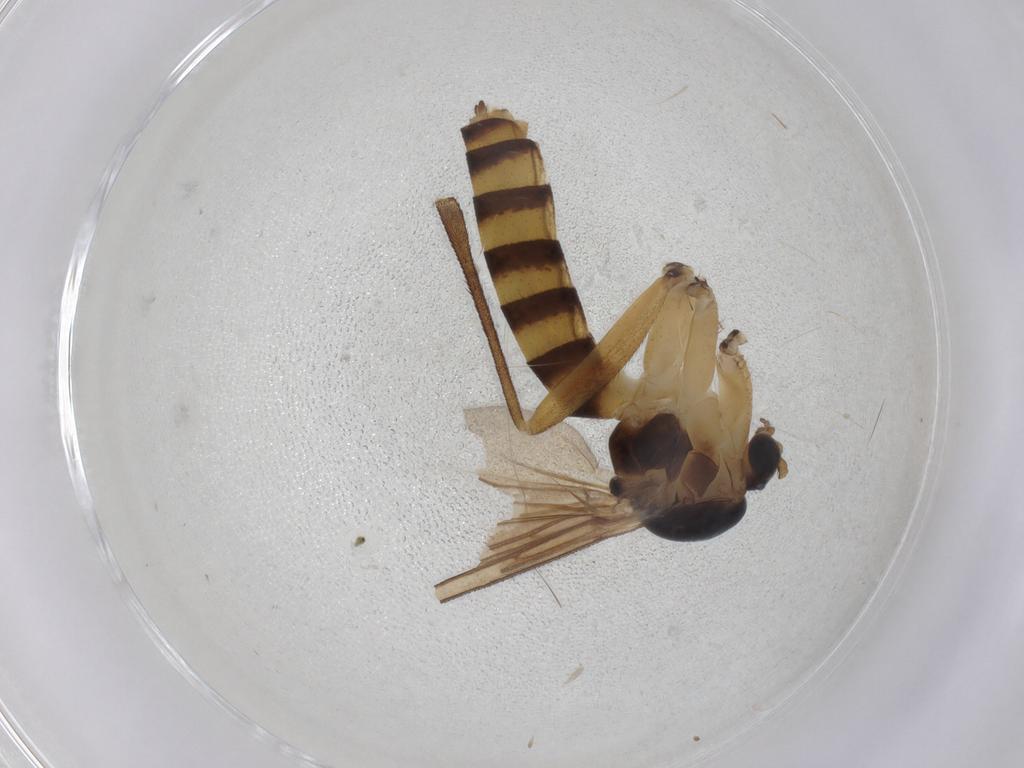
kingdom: Animalia
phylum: Arthropoda
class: Insecta
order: Diptera
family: Mycetophilidae
